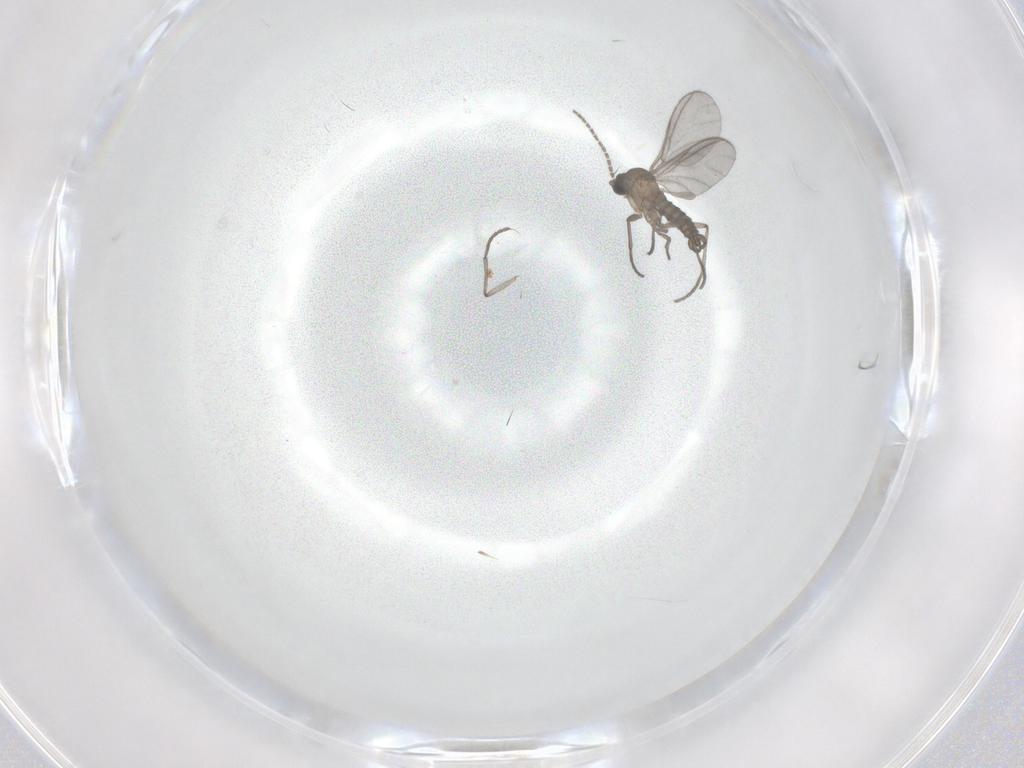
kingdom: Animalia
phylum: Arthropoda
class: Insecta
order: Diptera
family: Sciaridae
